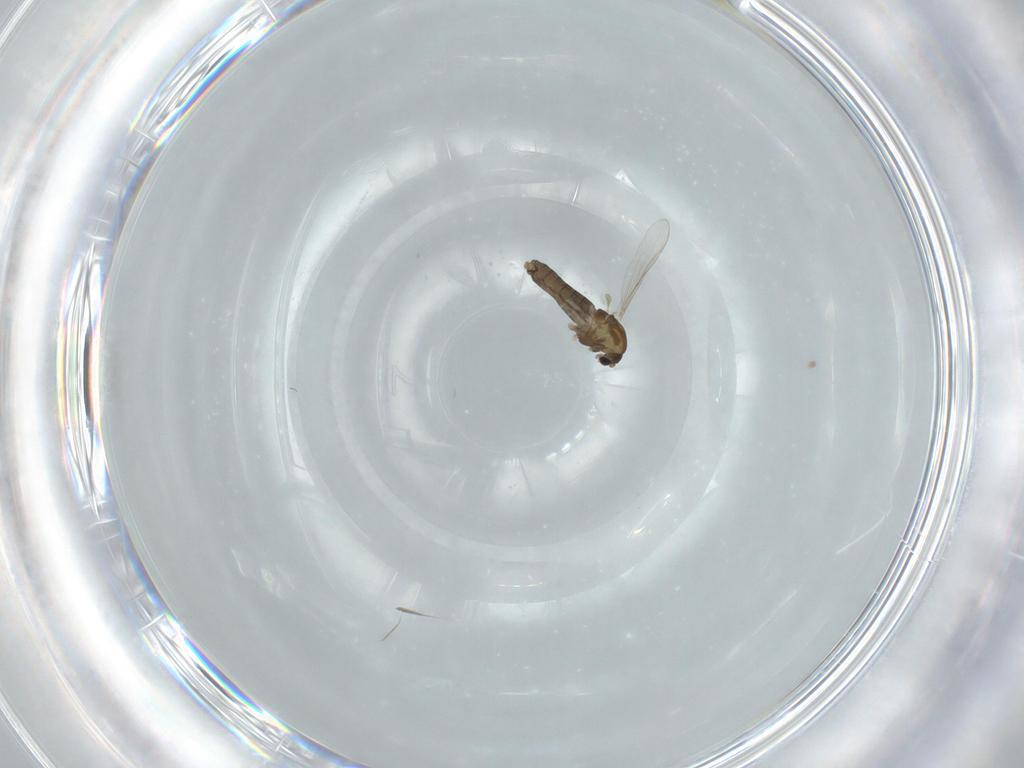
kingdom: Animalia
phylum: Arthropoda
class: Insecta
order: Diptera
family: Chironomidae
